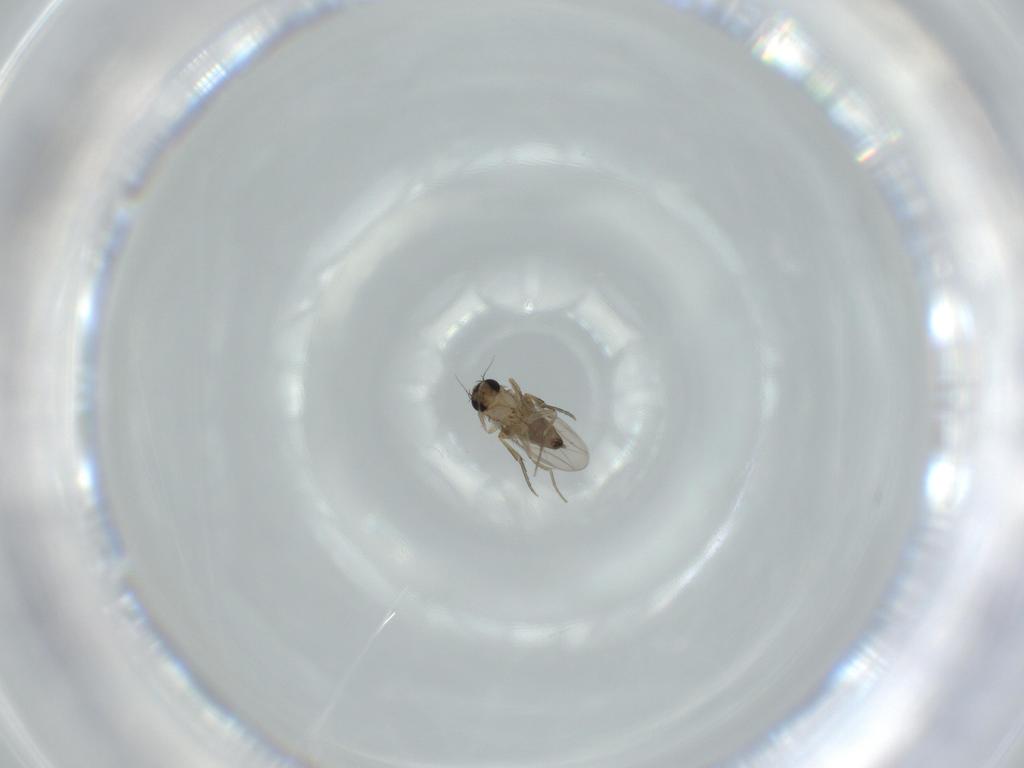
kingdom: Animalia
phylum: Arthropoda
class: Insecta
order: Diptera
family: Phoridae
